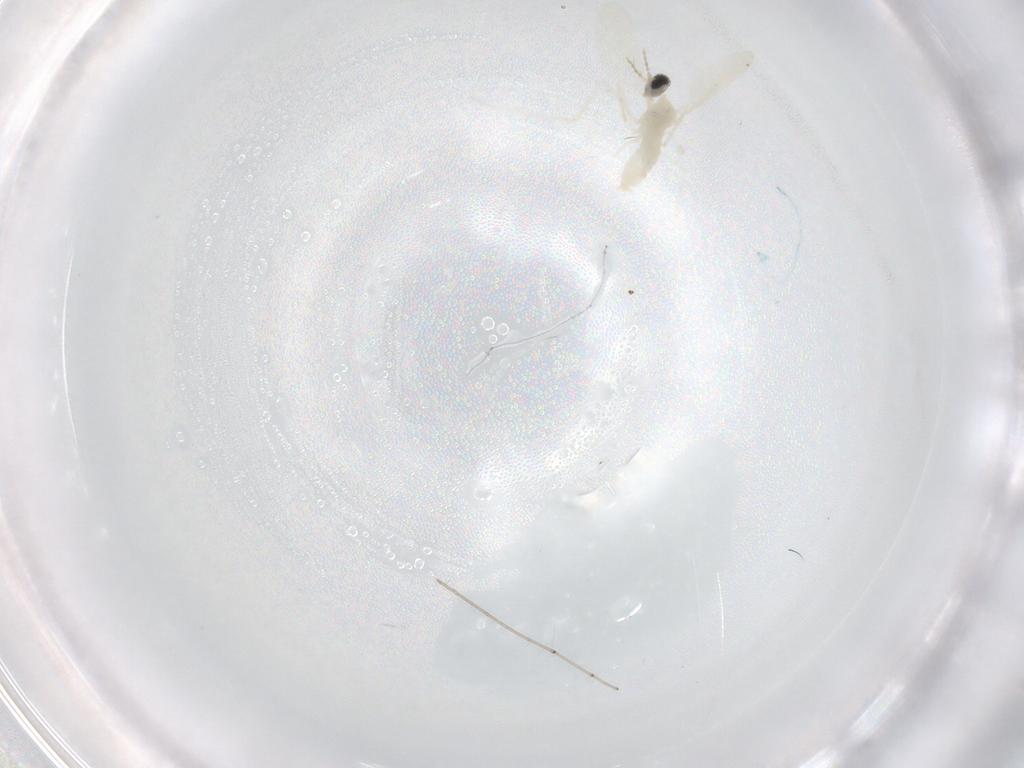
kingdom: Animalia
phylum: Arthropoda
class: Insecta
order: Diptera
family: Cecidomyiidae
